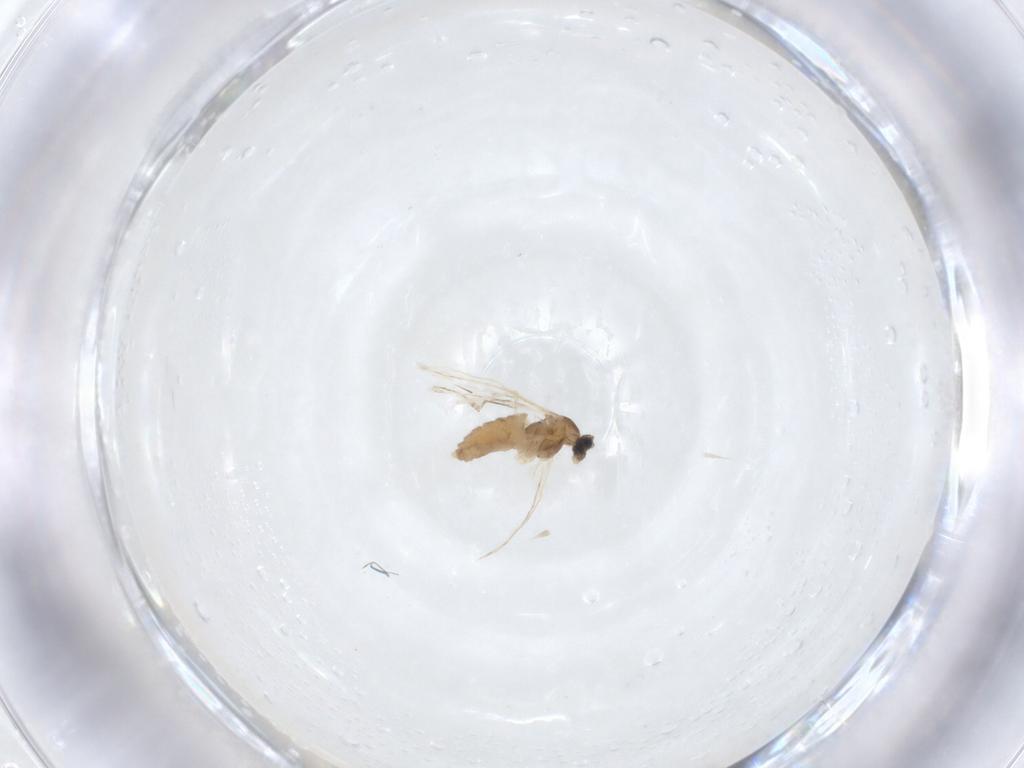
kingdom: Animalia
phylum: Arthropoda
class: Insecta
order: Diptera
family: Mycetophilidae
